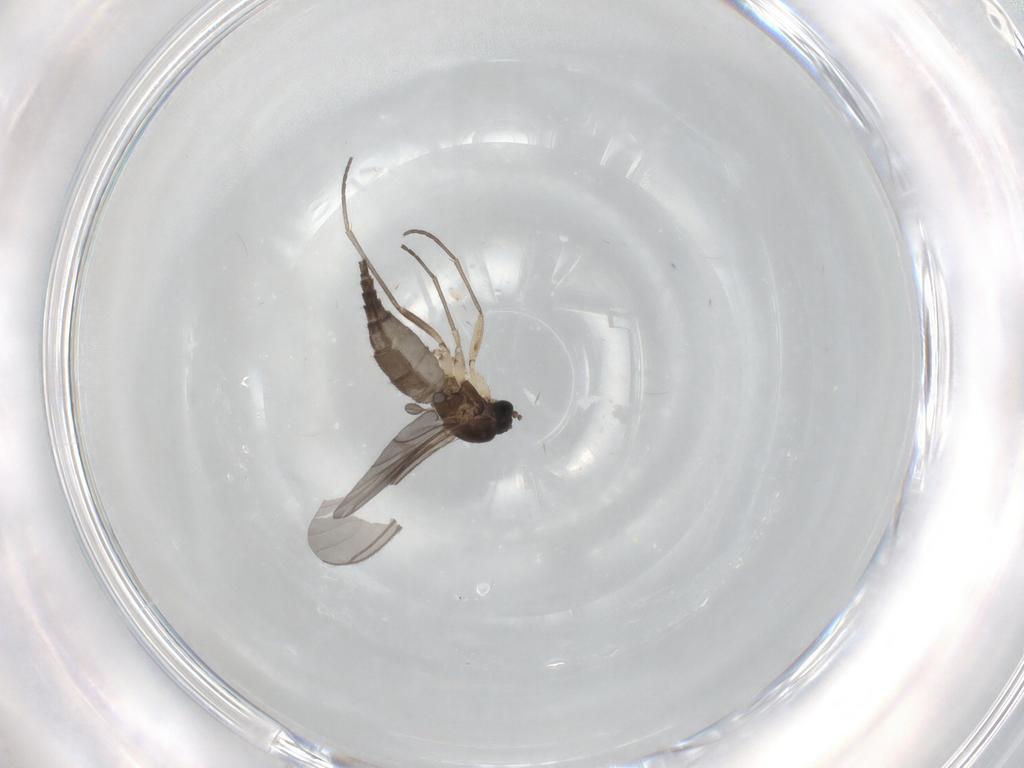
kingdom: Animalia
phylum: Arthropoda
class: Insecta
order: Diptera
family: Sciaridae
